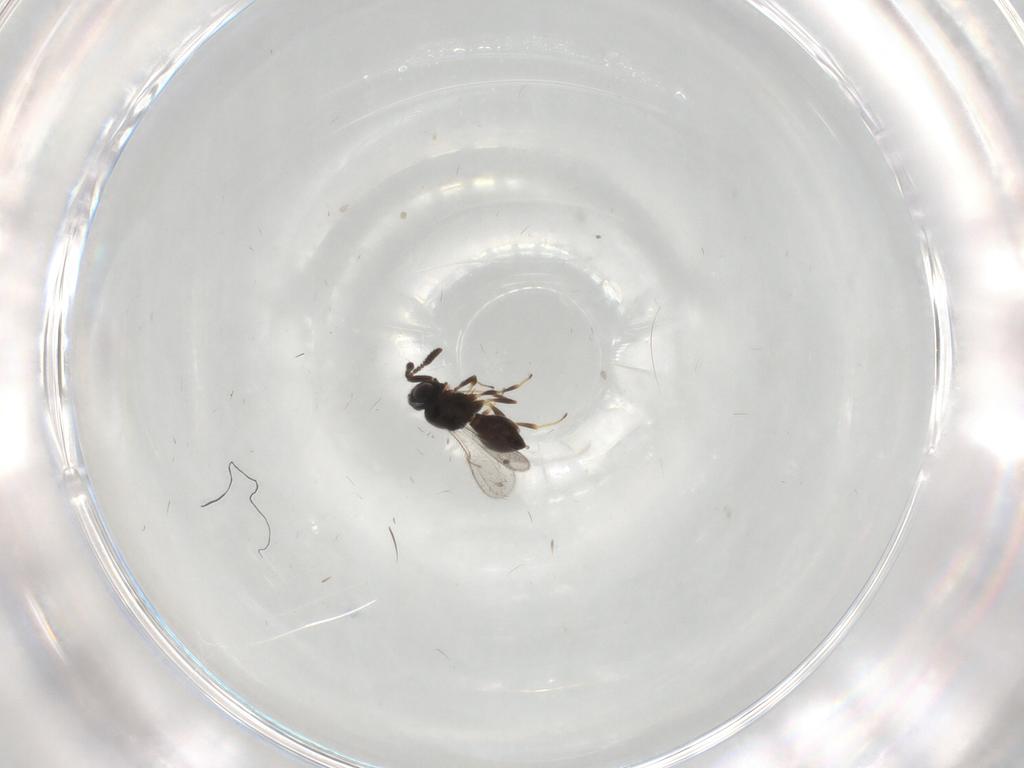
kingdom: Animalia
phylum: Arthropoda
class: Insecta
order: Hymenoptera
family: Scelionidae
